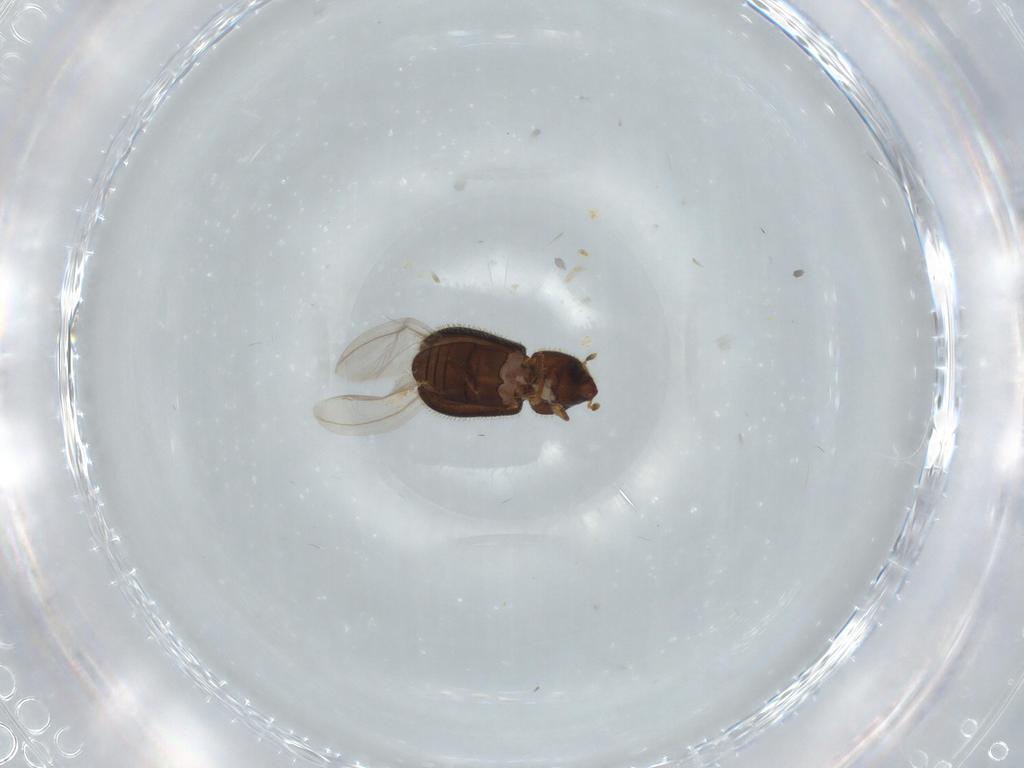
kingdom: Animalia
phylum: Arthropoda
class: Insecta
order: Coleoptera
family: Curculionidae
